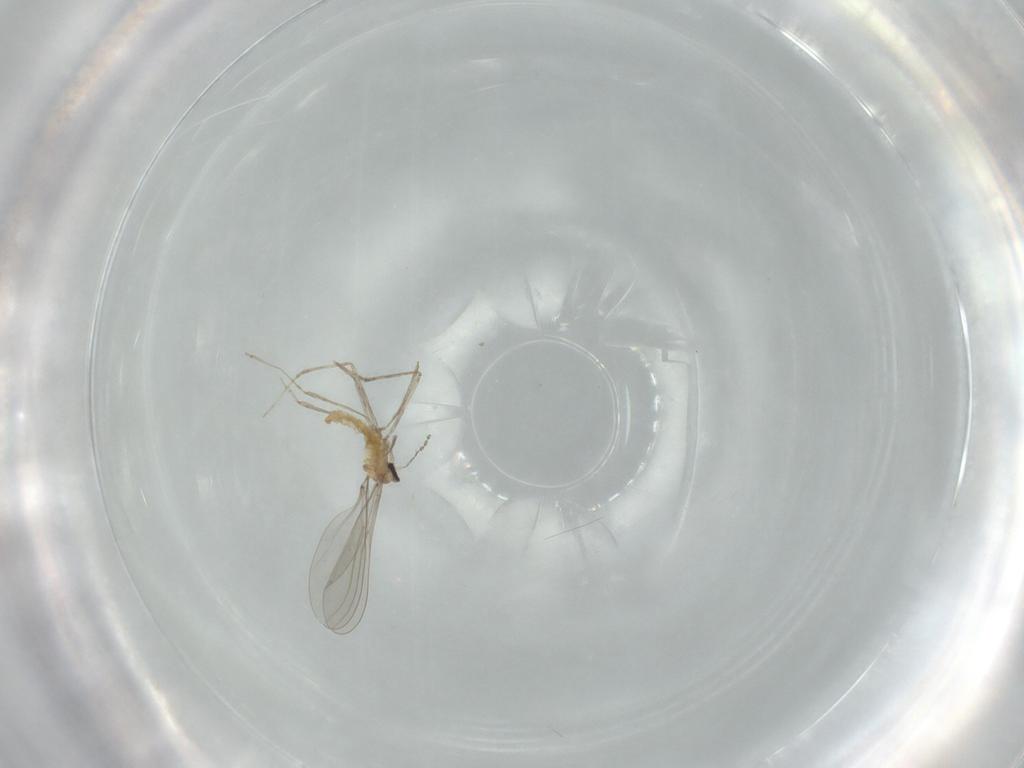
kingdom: Animalia
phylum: Arthropoda
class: Insecta
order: Diptera
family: Cecidomyiidae
